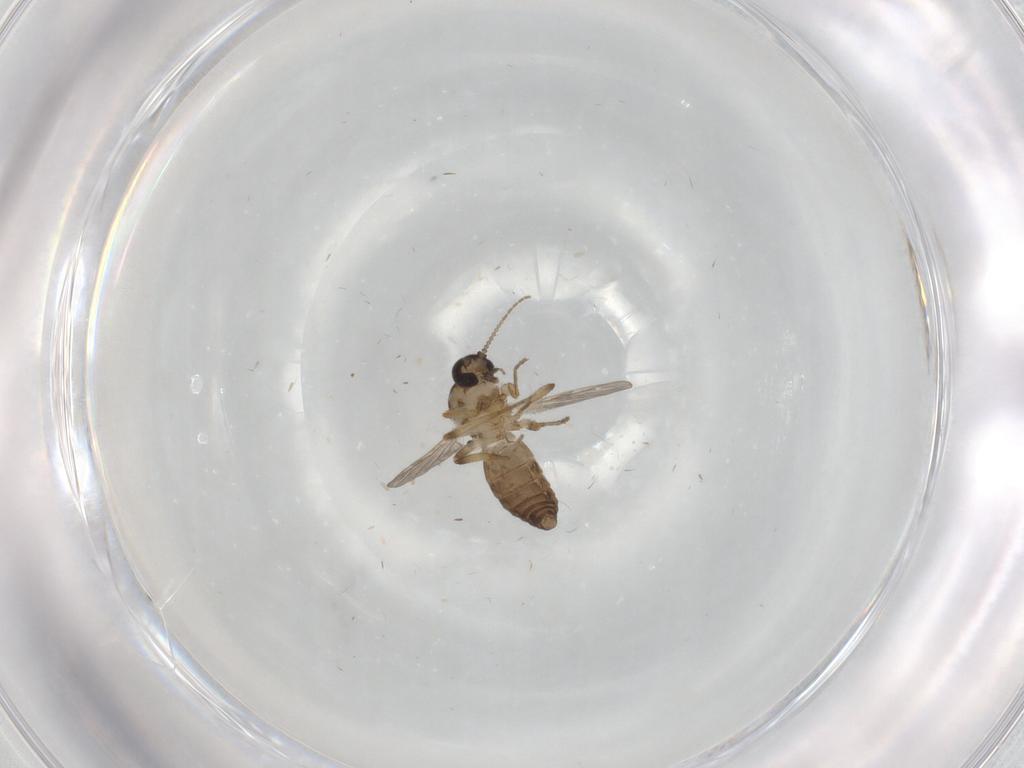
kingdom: Animalia
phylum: Arthropoda
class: Insecta
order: Diptera
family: Ceratopogonidae
